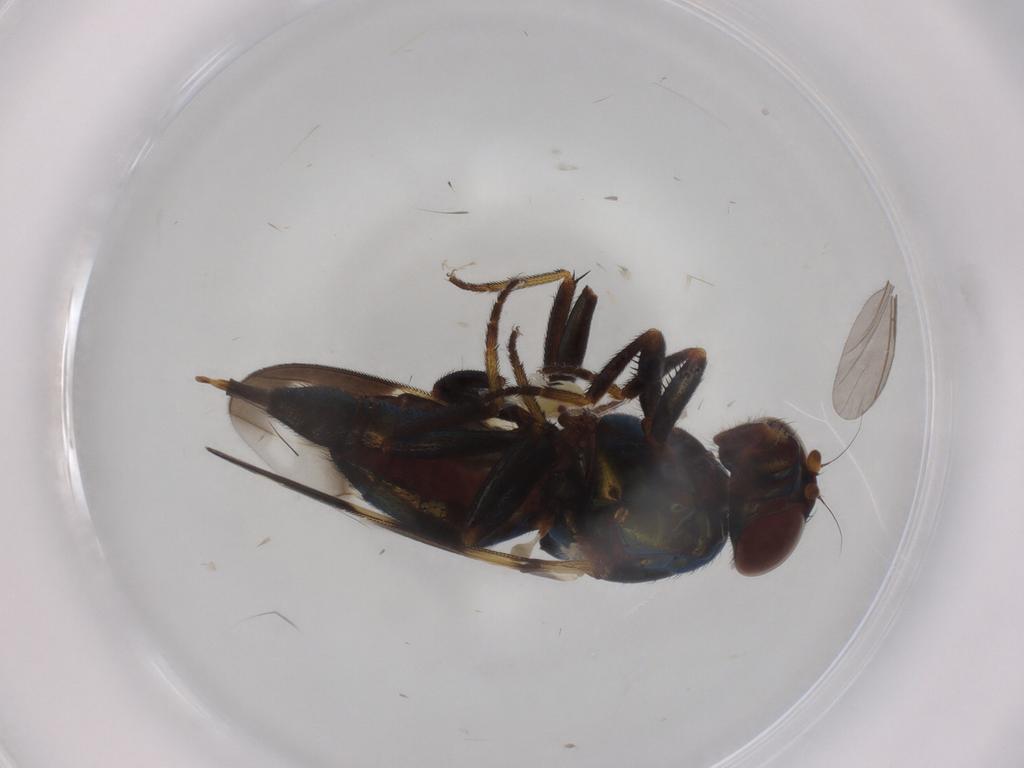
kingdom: Animalia
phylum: Arthropoda
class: Insecta
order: Diptera
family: Ulidiidae
